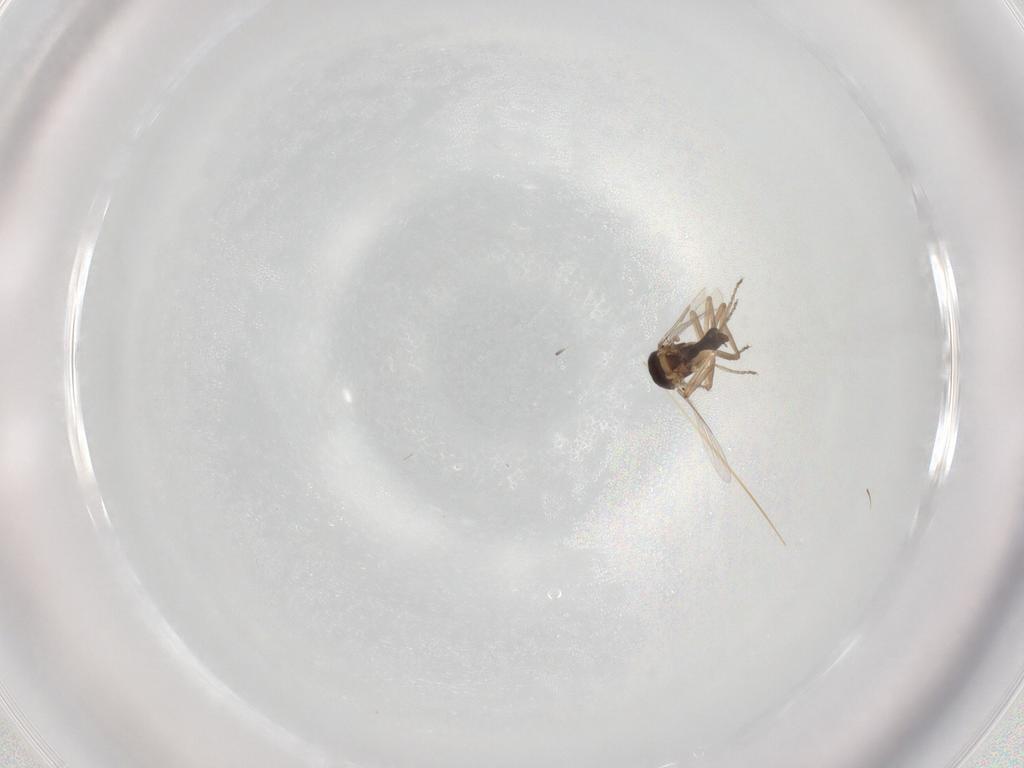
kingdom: Animalia
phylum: Arthropoda
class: Insecta
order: Diptera
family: Ceratopogonidae
